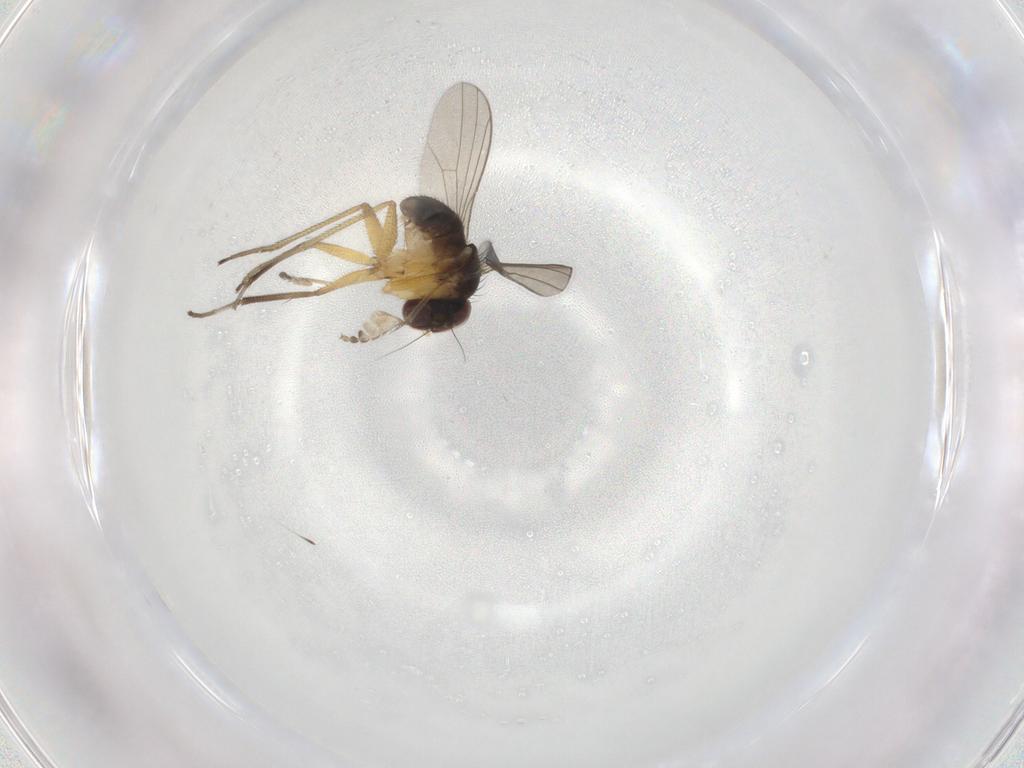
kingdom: Animalia
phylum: Arthropoda
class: Insecta
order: Diptera
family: Dolichopodidae
